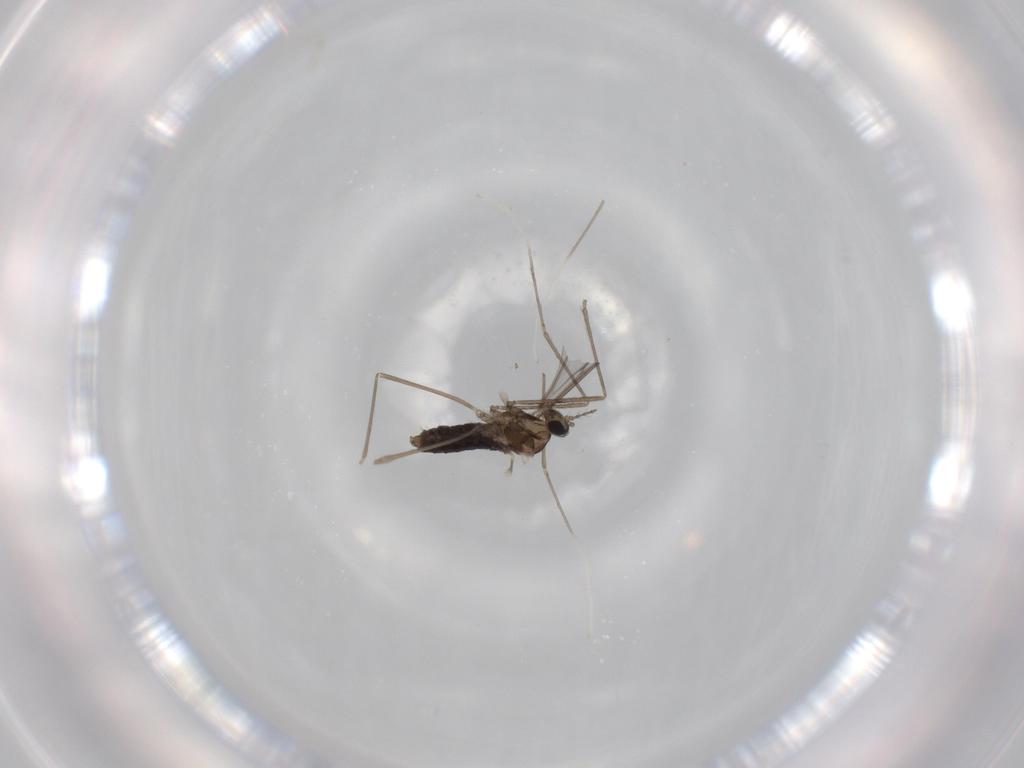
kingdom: Animalia
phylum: Arthropoda
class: Insecta
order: Diptera
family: Cecidomyiidae
